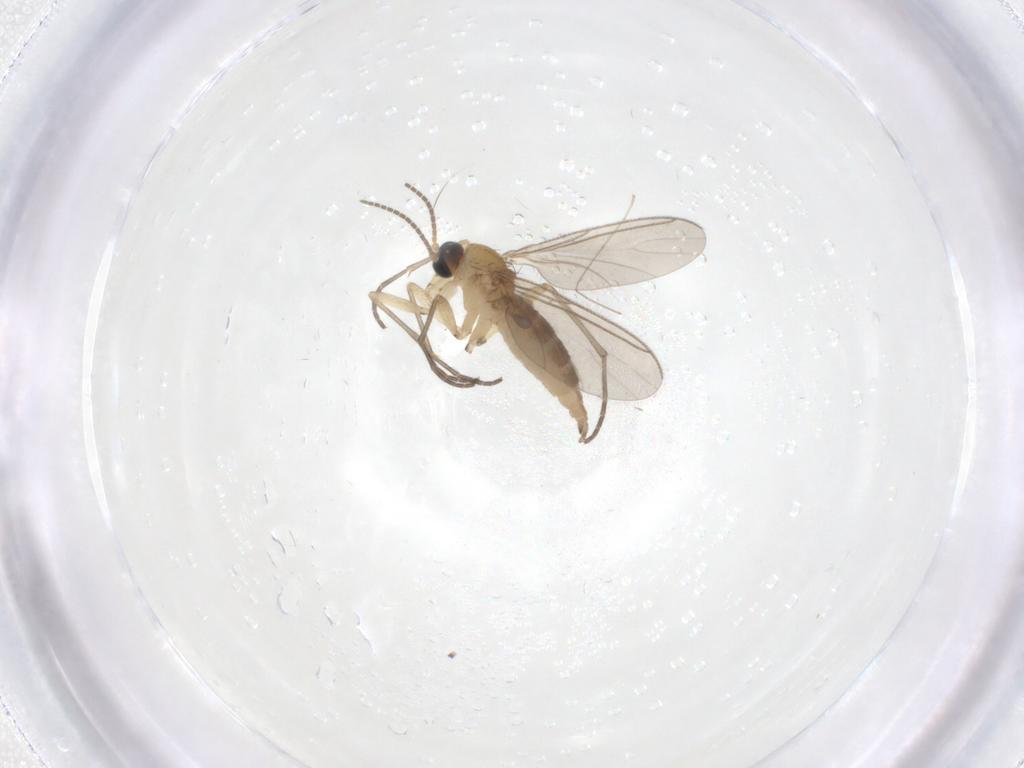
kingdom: Animalia
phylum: Arthropoda
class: Insecta
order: Diptera
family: Sciaridae
